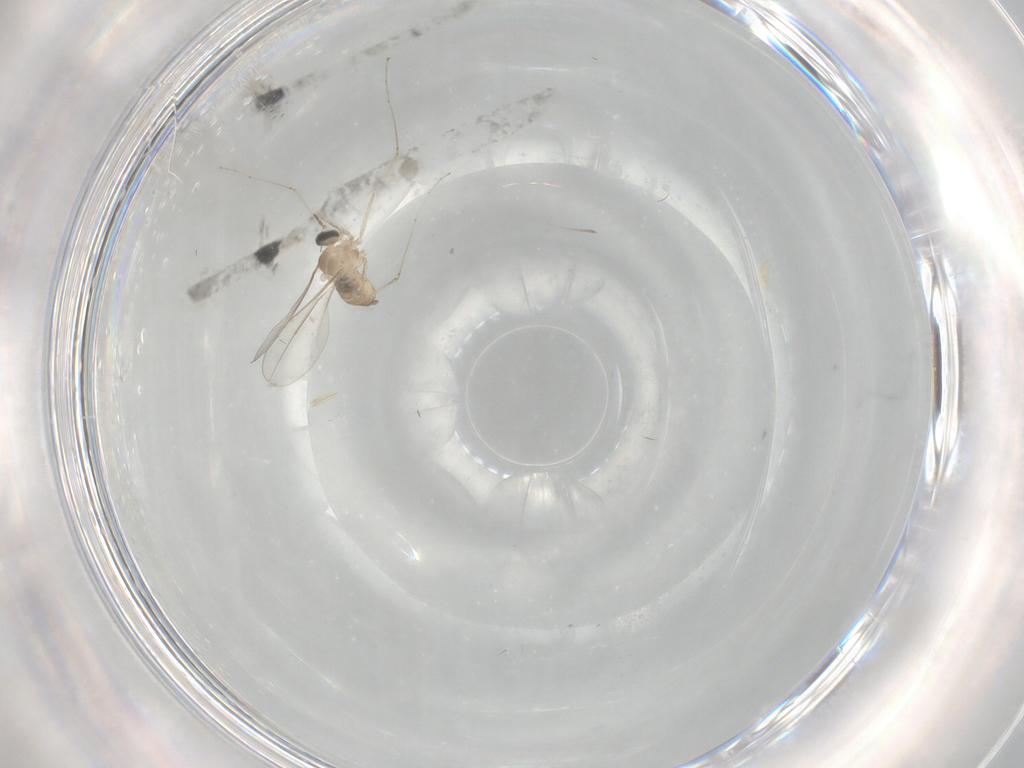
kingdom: Animalia
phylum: Arthropoda
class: Insecta
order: Diptera
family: Cecidomyiidae
